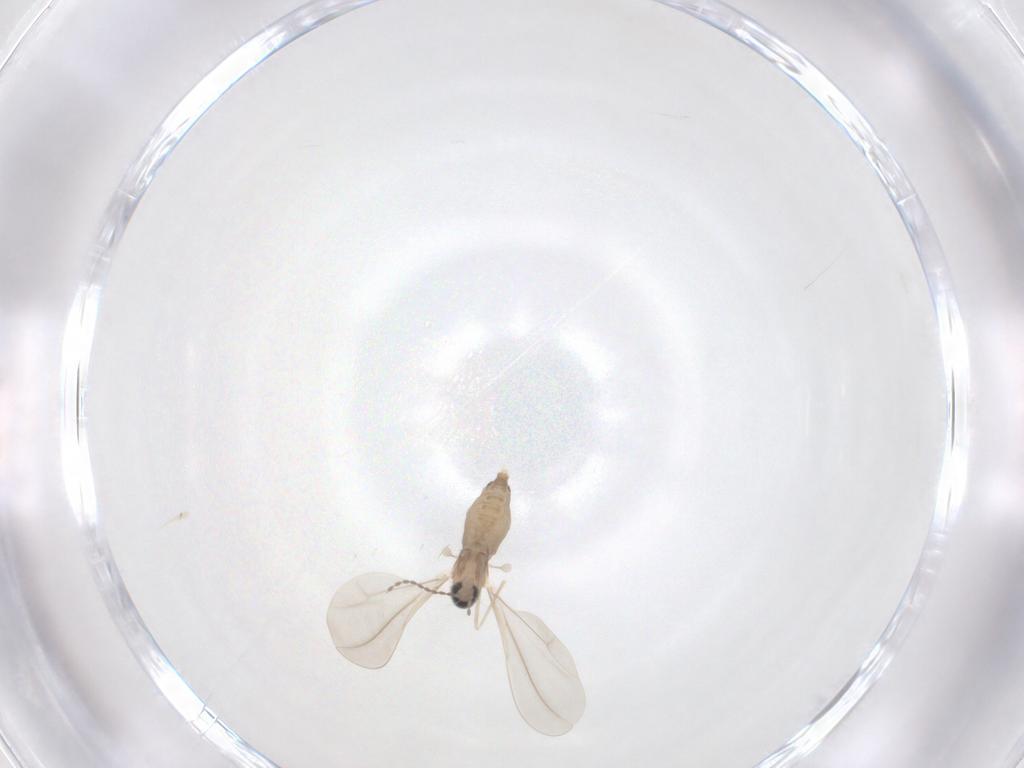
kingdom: Animalia
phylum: Arthropoda
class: Insecta
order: Diptera
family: Cecidomyiidae
